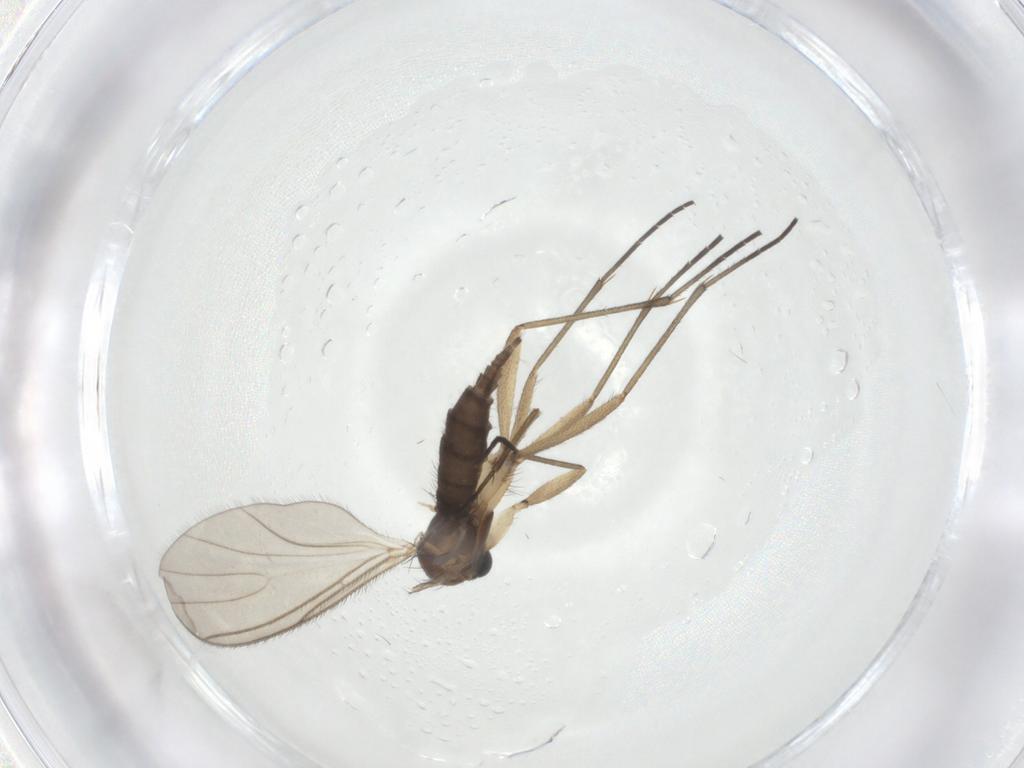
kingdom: Animalia
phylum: Arthropoda
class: Insecta
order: Diptera
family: Sciaridae
